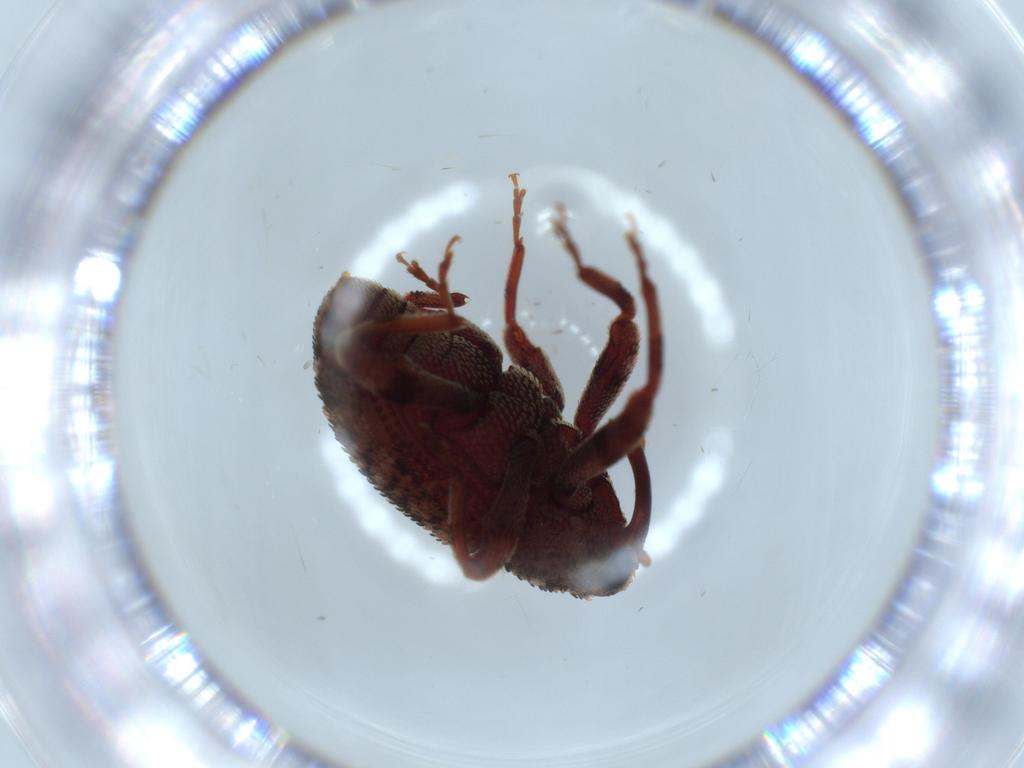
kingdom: Animalia
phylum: Arthropoda
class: Insecta
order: Coleoptera
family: Curculionidae
